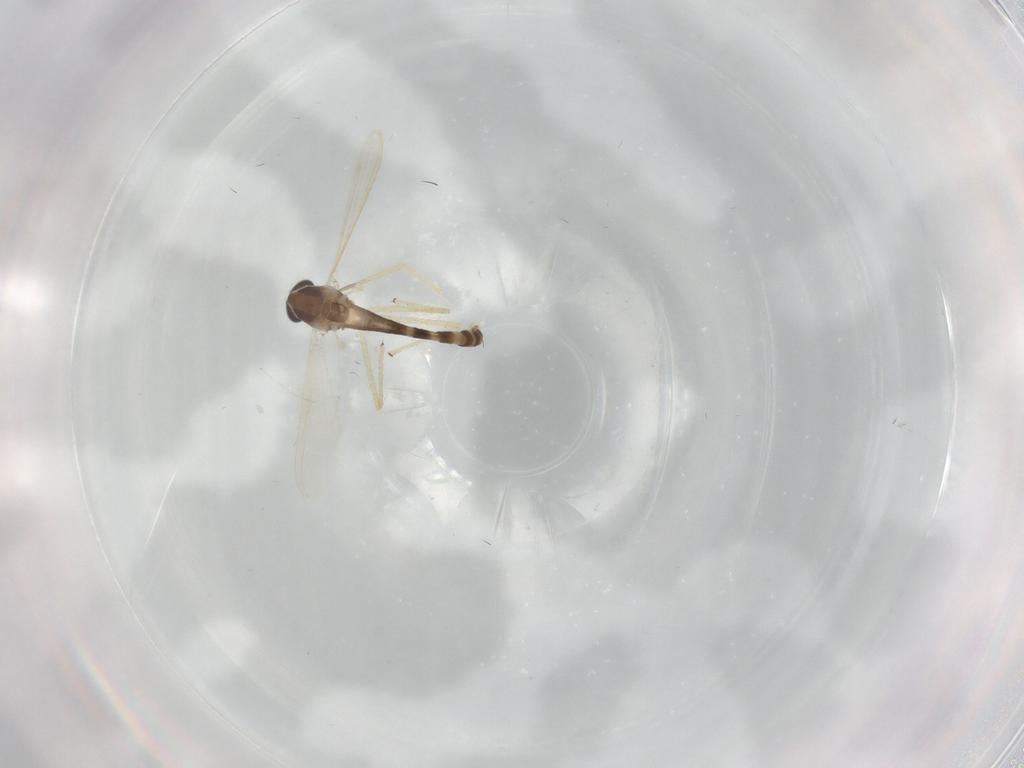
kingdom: Animalia
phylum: Arthropoda
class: Insecta
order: Diptera
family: Chironomidae
